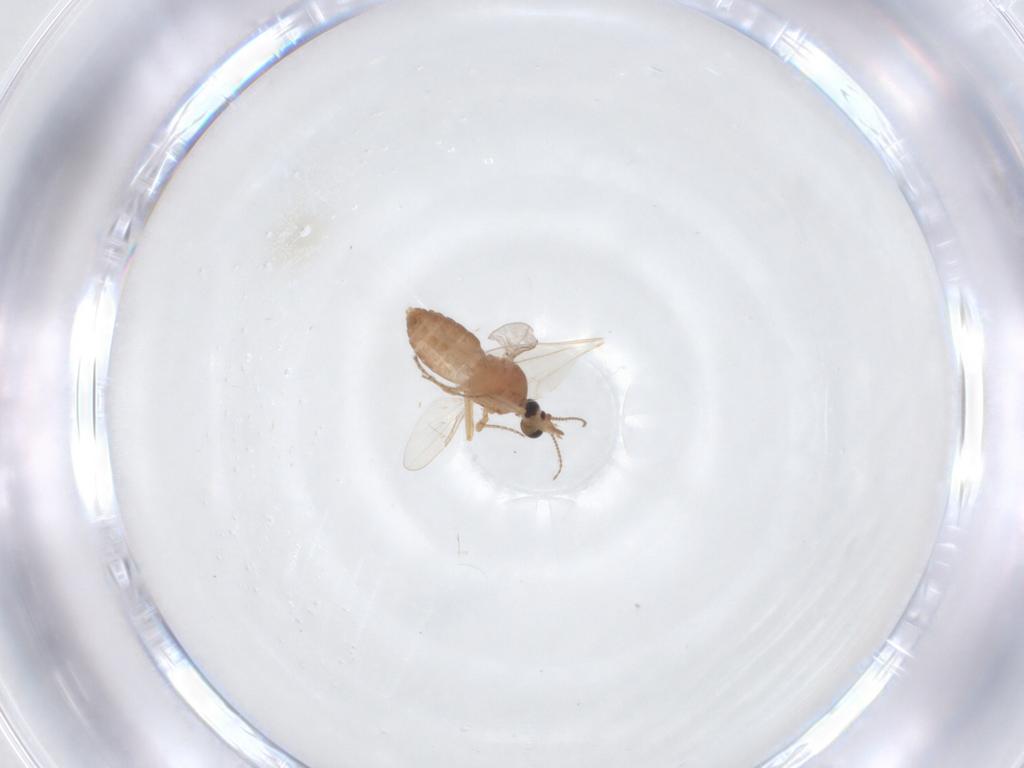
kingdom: Animalia
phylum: Arthropoda
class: Insecta
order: Diptera
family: Ceratopogonidae
